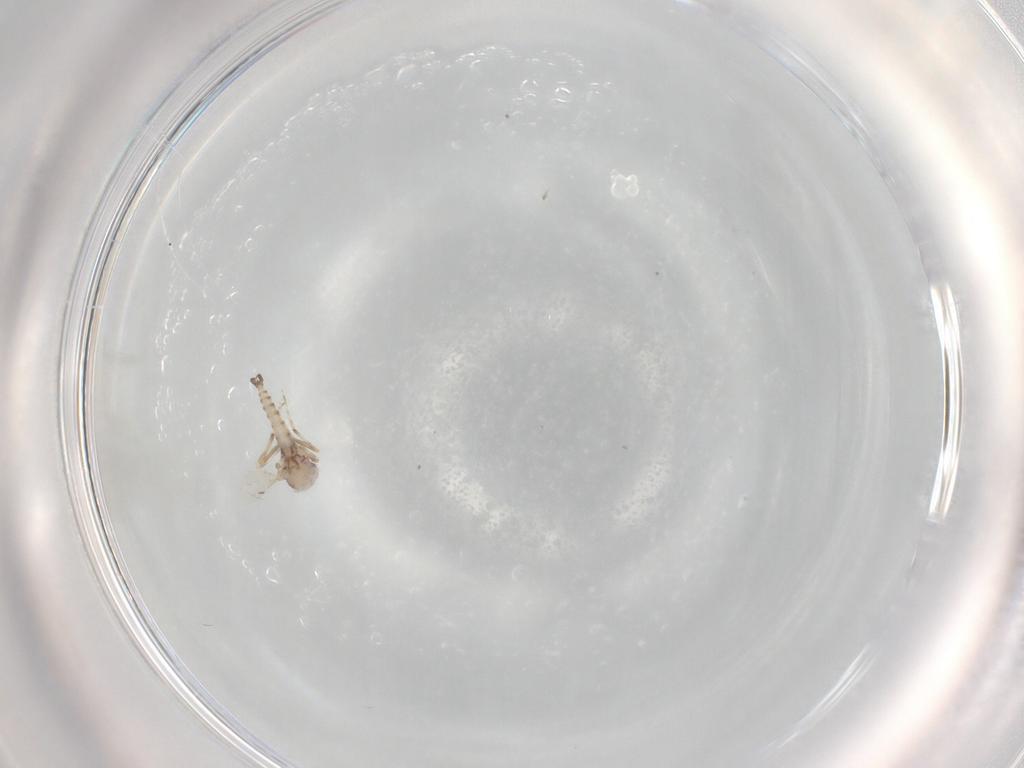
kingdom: Animalia
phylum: Arthropoda
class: Insecta
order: Diptera
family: Ceratopogonidae
